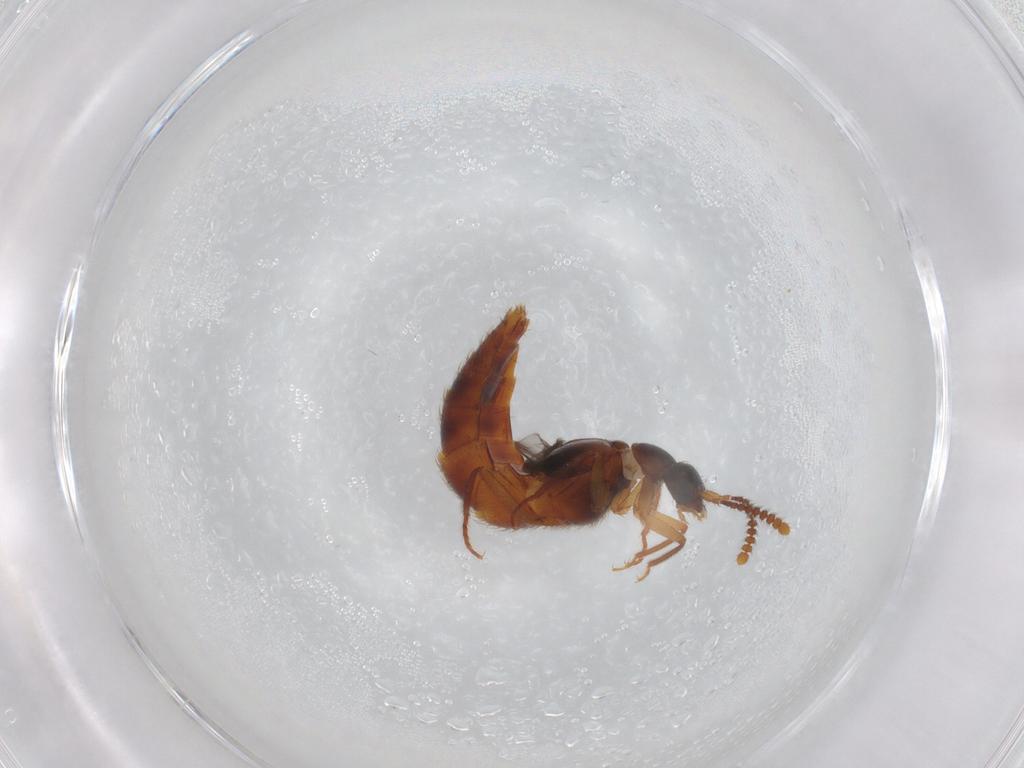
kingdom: Animalia
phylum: Arthropoda
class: Insecta
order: Coleoptera
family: Staphylinidae
